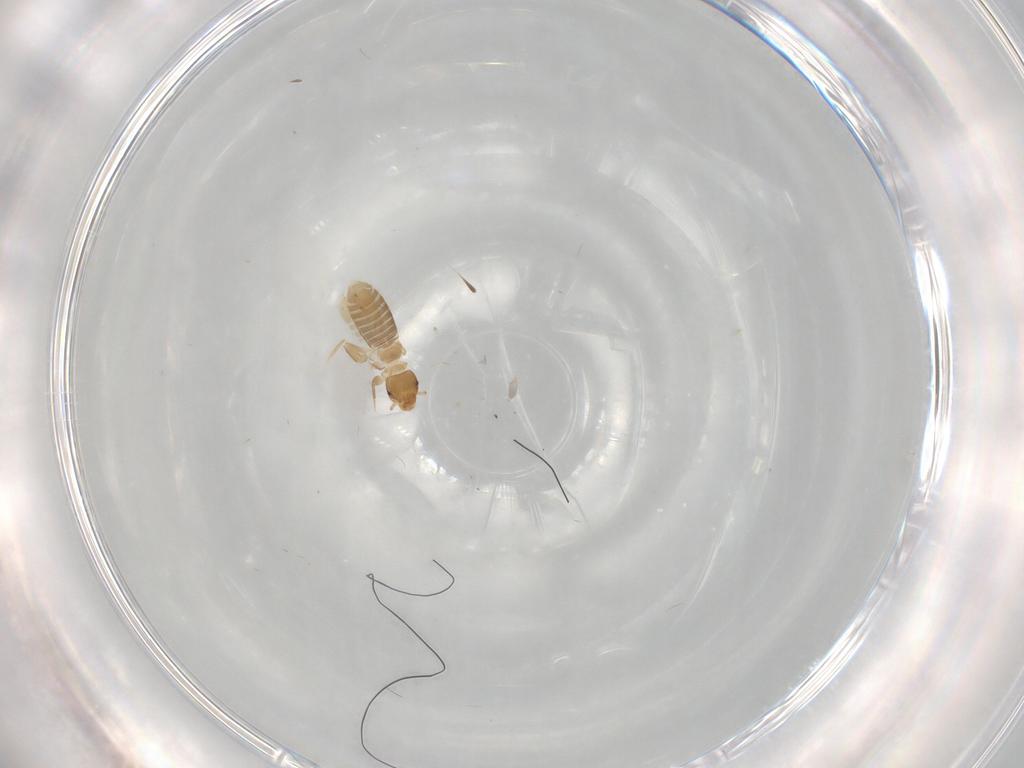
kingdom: Animalia
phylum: Arthropoda
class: Insecta
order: Psocodea
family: Liposcelididae
